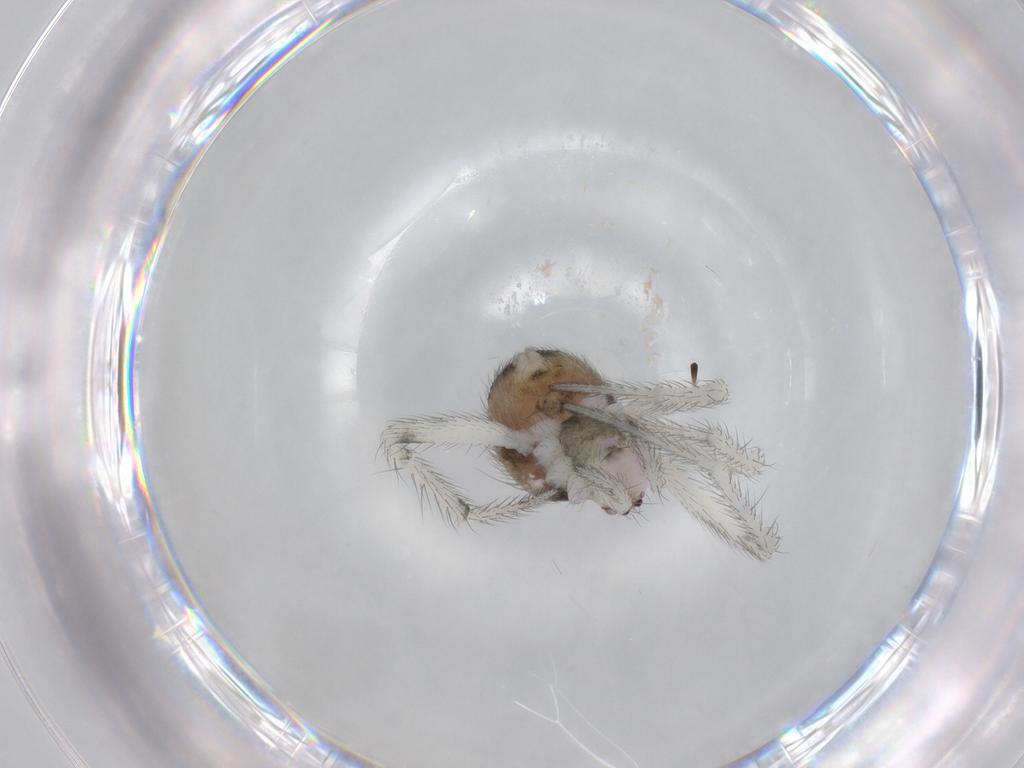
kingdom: Animalia
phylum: Arthropoda
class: Arachnida
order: Araneae
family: Theridiidae
